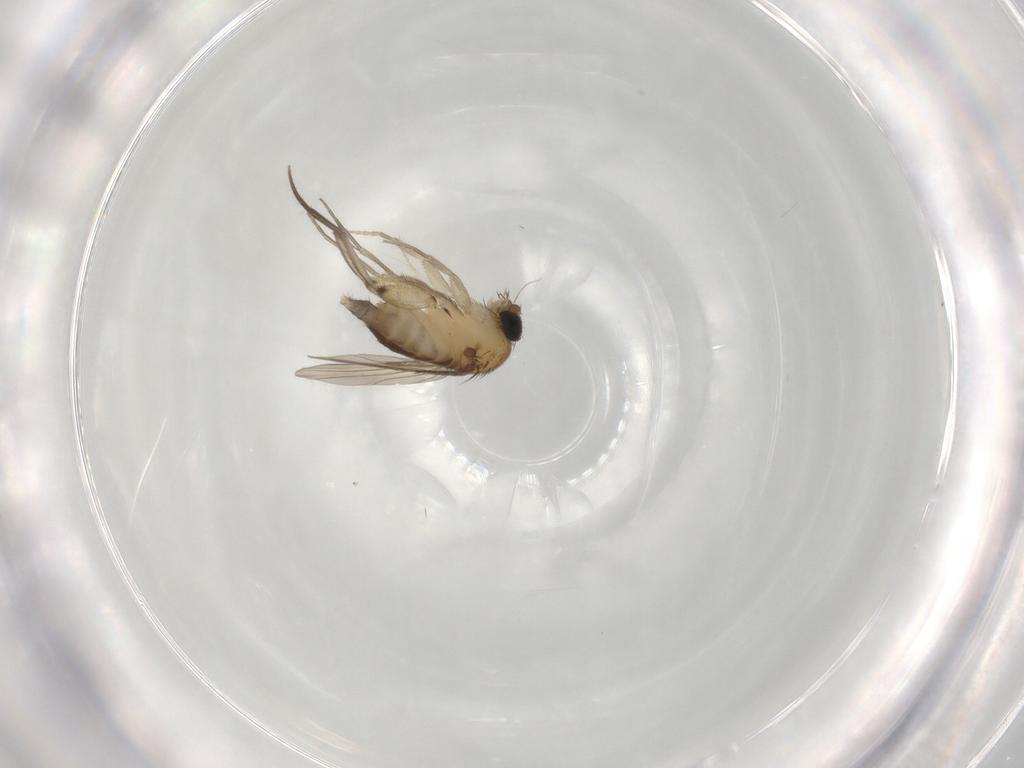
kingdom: Animalia
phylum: Arthropoda
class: Insecta
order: Diptera
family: Phoridae
